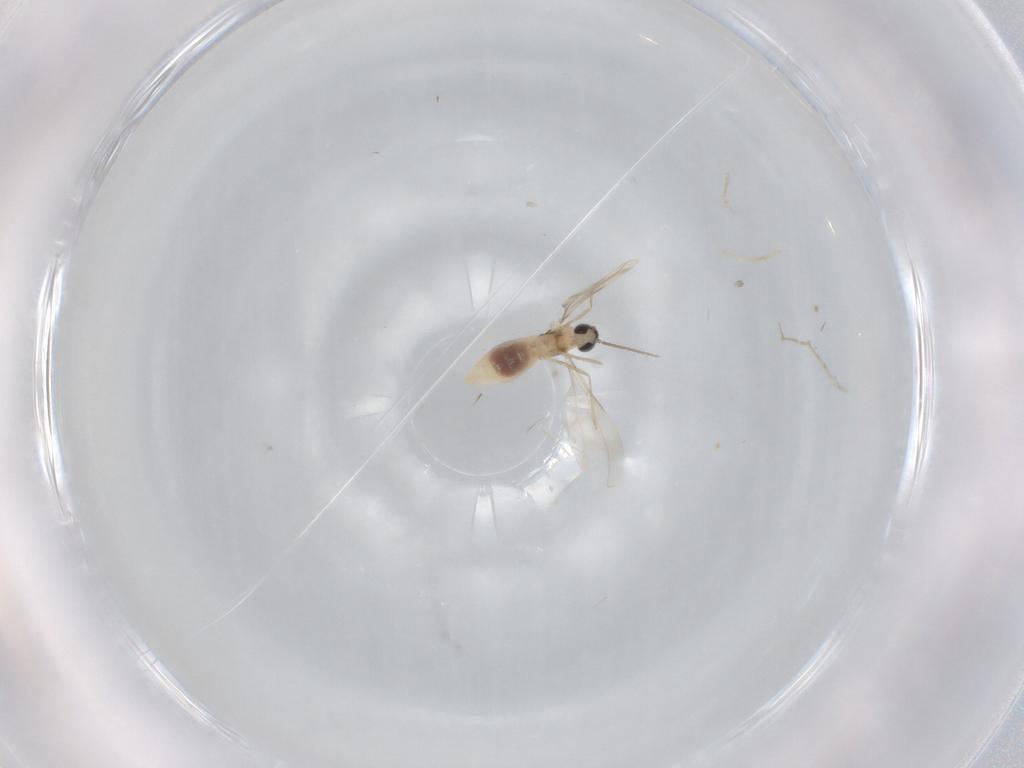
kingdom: Animalia
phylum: Arthropoda
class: Insecta
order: Diptera
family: Cecidomyiidae
